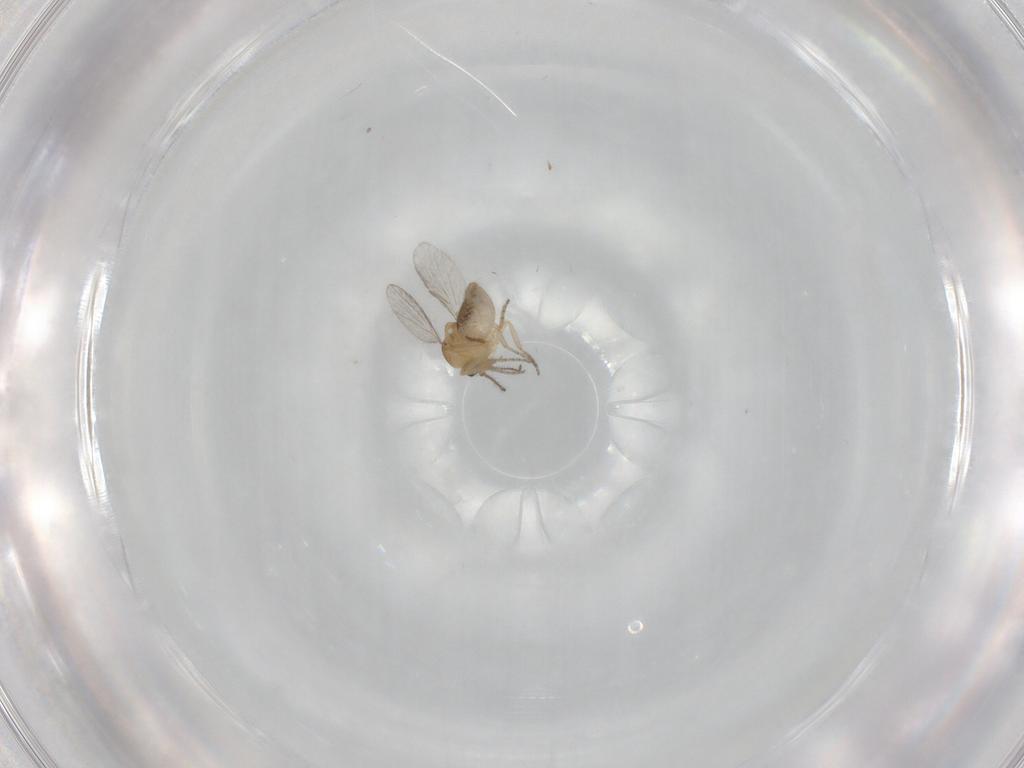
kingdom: Animalia
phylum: Arthropoda
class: Insecta
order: Diptera
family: Ceratopogonidae
